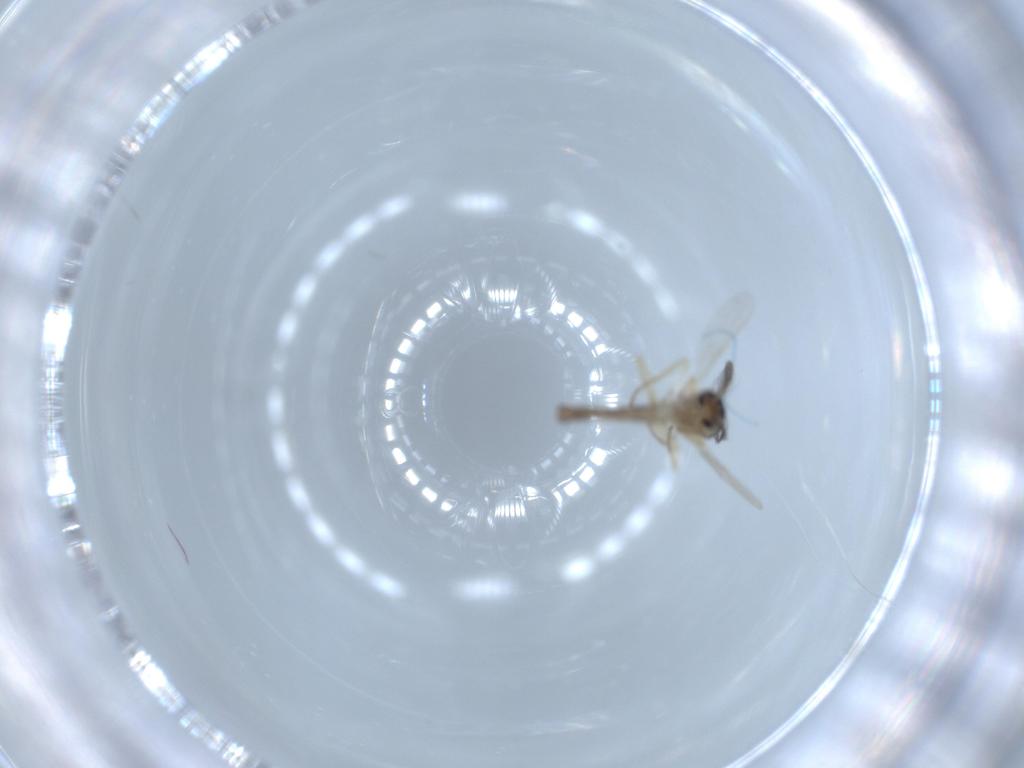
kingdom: Animalia
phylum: Arthropoda
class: Insecta
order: Diptera
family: Ceratopogonidae
